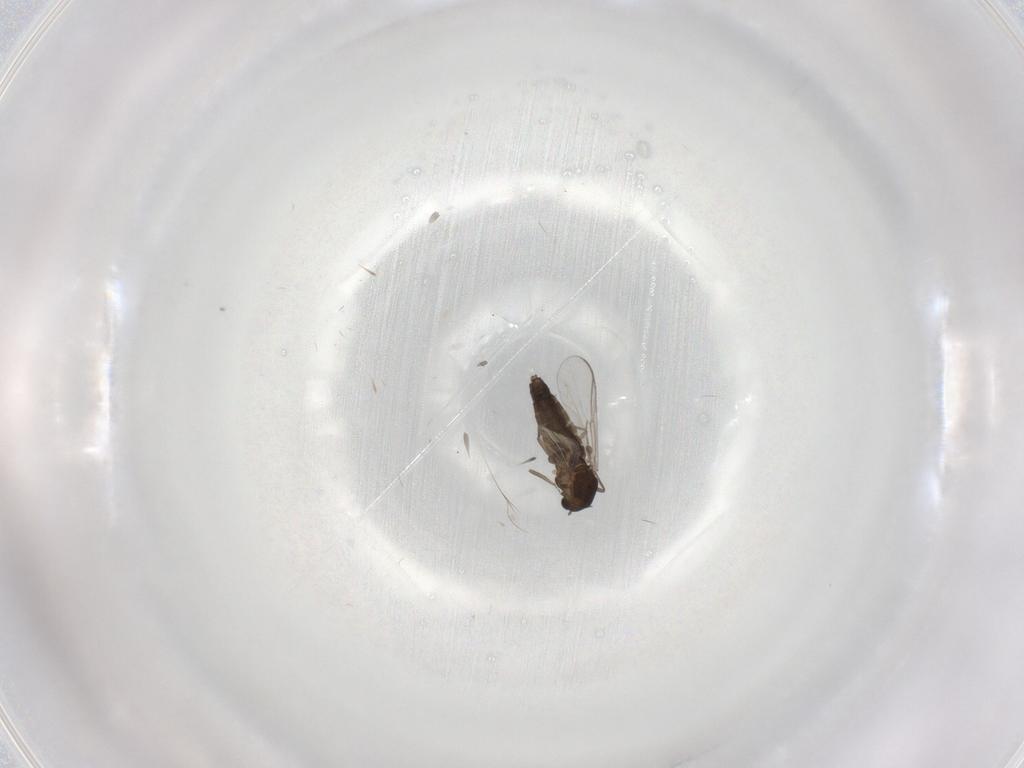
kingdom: Animalia
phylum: Arthropoda
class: Insecta
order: Diptera
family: Chironomidae
